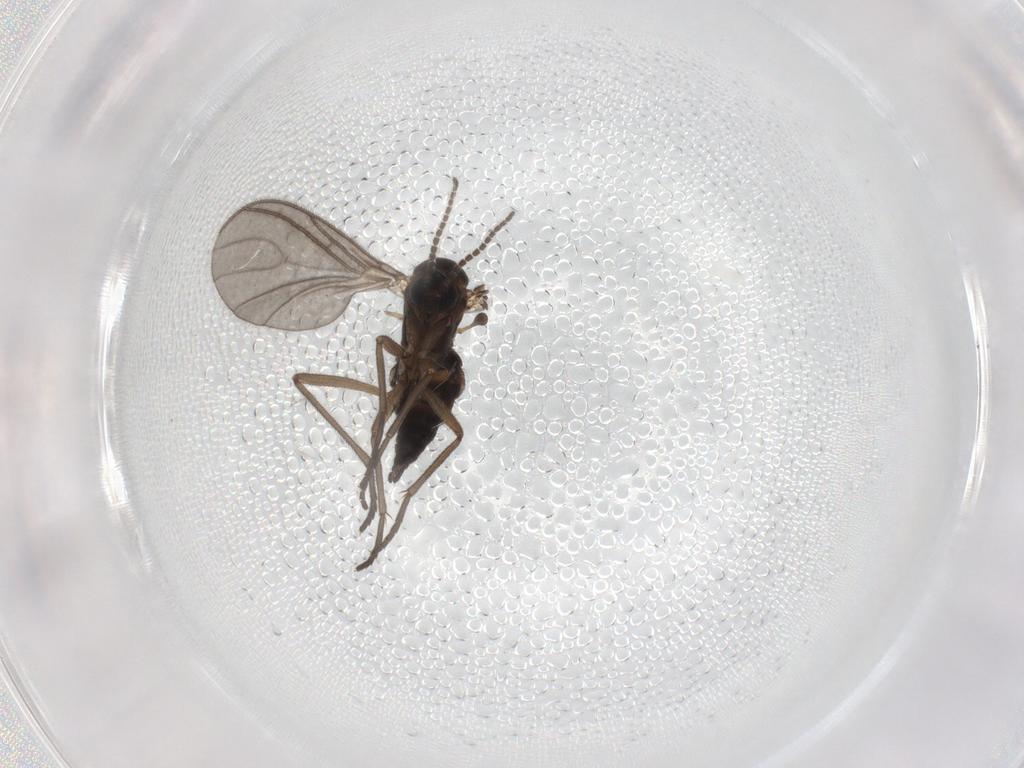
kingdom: Animalia
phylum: Arthropoda
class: Insecta
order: Diptera
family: Sciaridae
